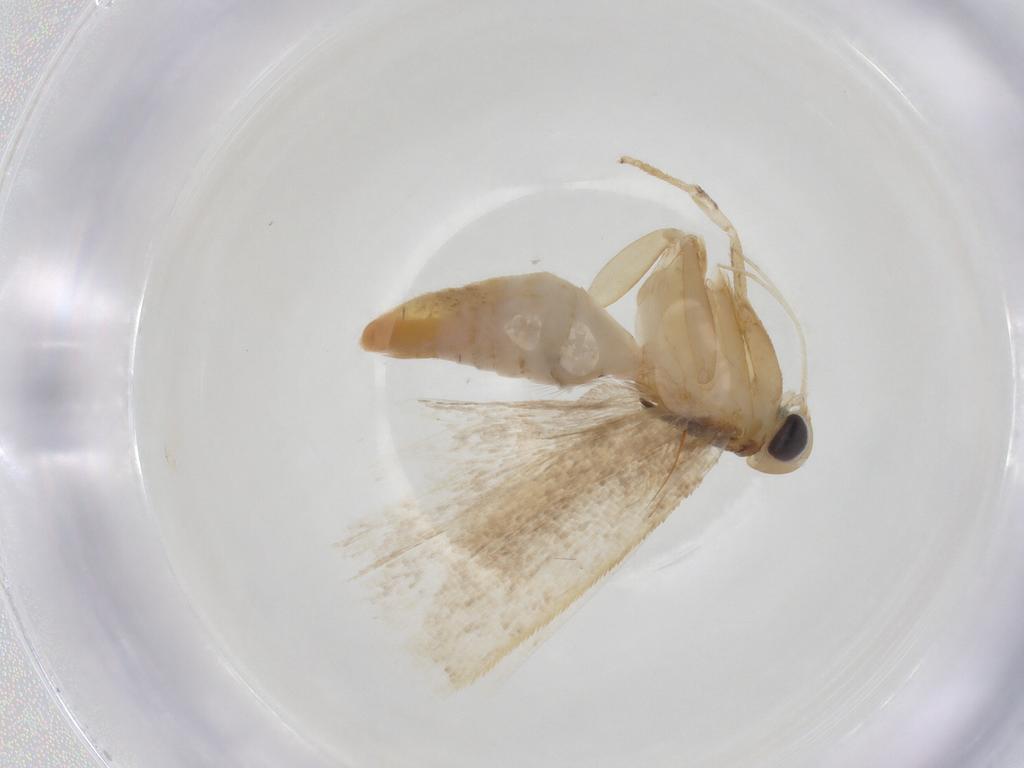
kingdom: Animalia
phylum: Arthropoda
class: Insecta
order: Lepidoptera
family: Gelechiidae
